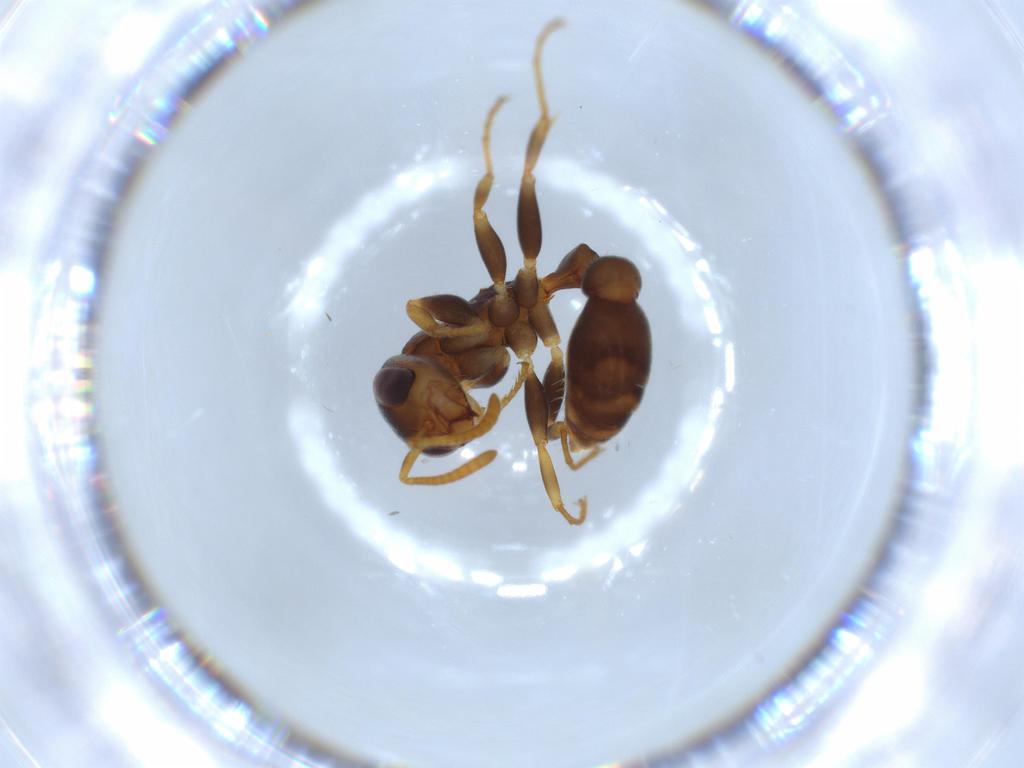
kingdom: Animalia
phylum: Arthropoda
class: Insecta
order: Hymenoptera
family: Formicidae
